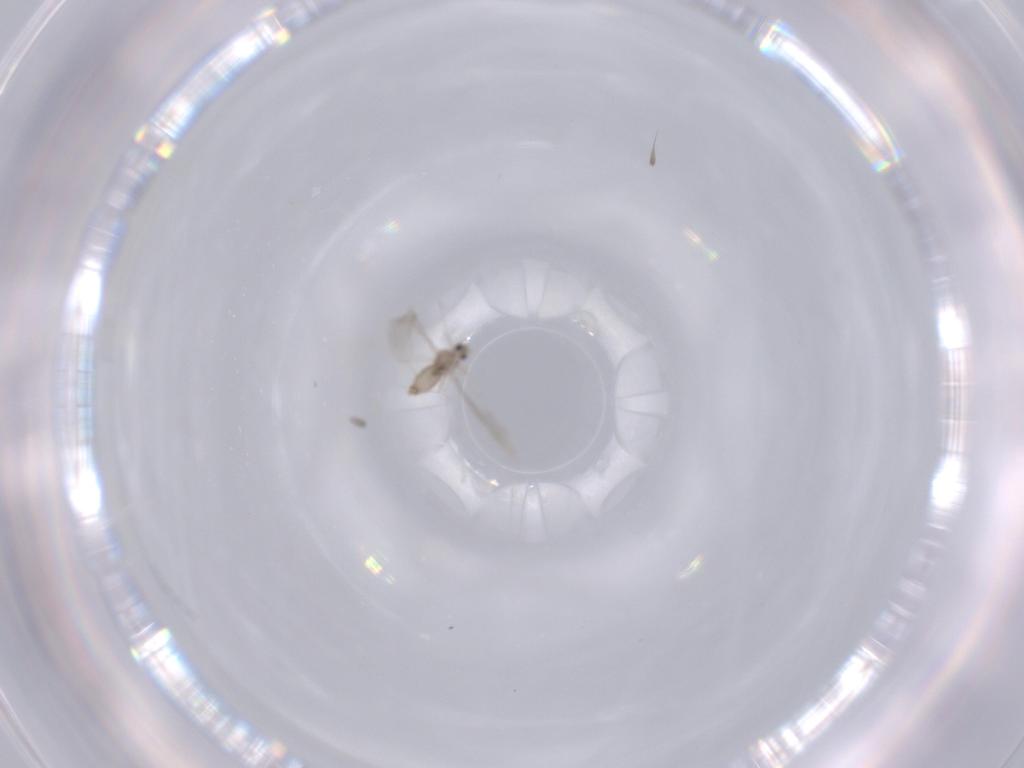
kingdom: Animalia
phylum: Arthropoda
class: Insecta
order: Diptera
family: Cecidomyiidae
